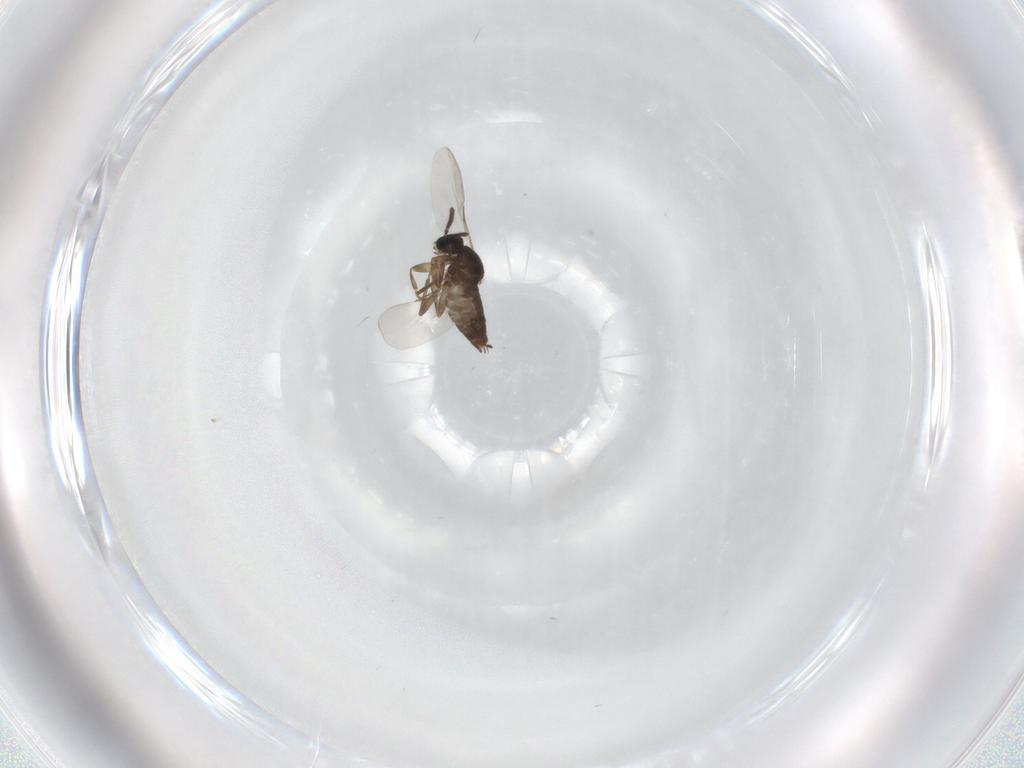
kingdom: Animalia
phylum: Arthropoda
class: Insecta
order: Diptera
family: Scatopsidae
